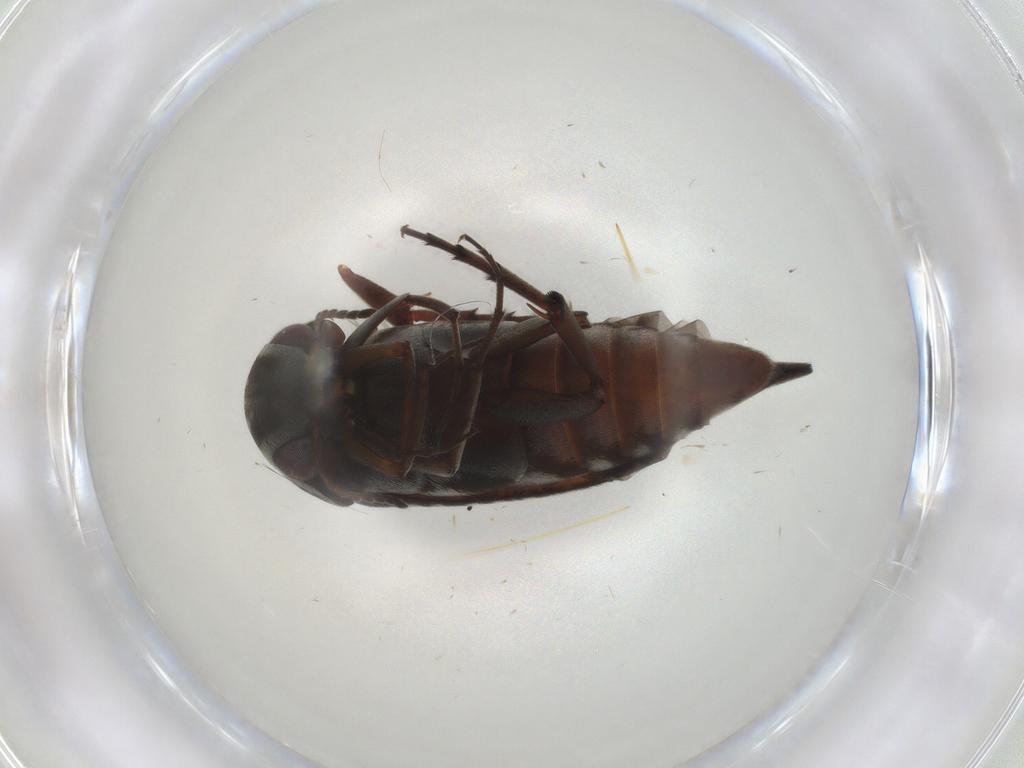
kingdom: Animalia
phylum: Arthropoda
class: Insecta
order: Coleoptera
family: Mordellidae
